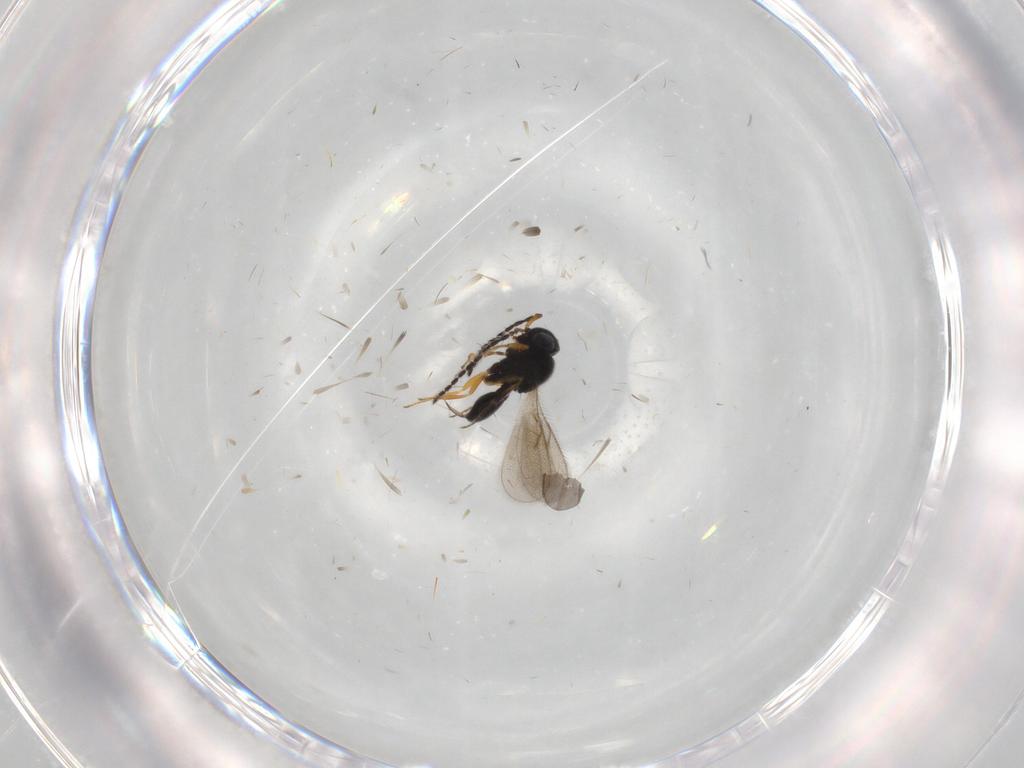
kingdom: Animalia
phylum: Arthropoda
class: Insecta
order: Hymenoptera
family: Scelionidae
